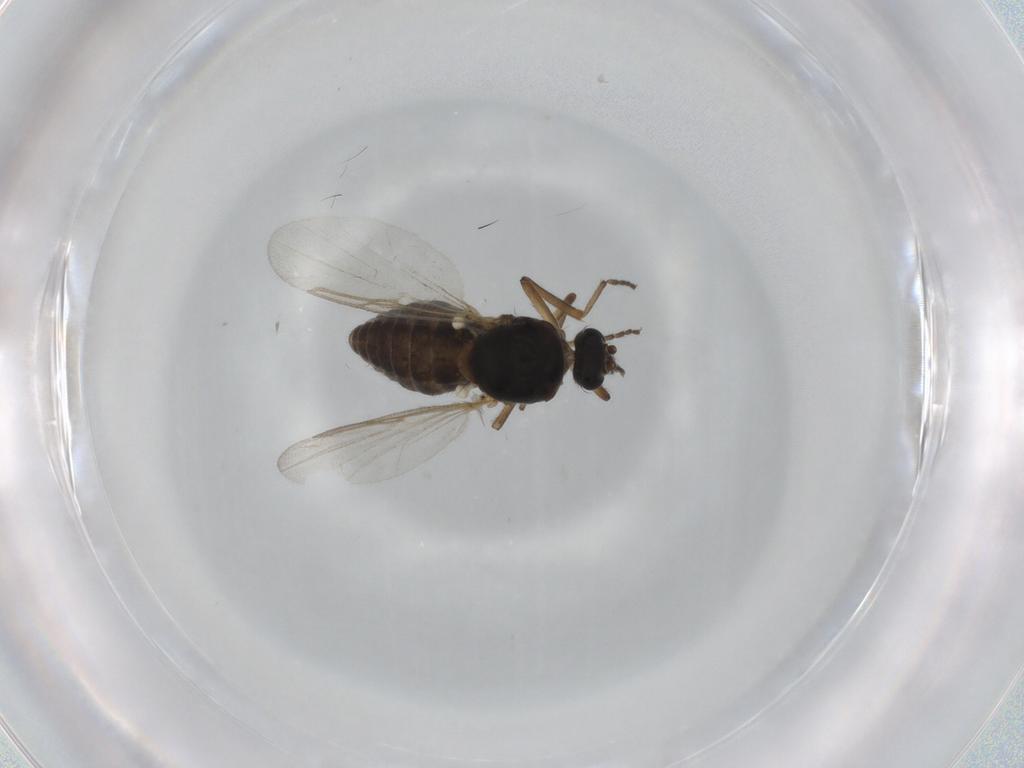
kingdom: Animalia
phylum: Arthropoda
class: Insecta
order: Diptera
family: Ceratopogonidae
